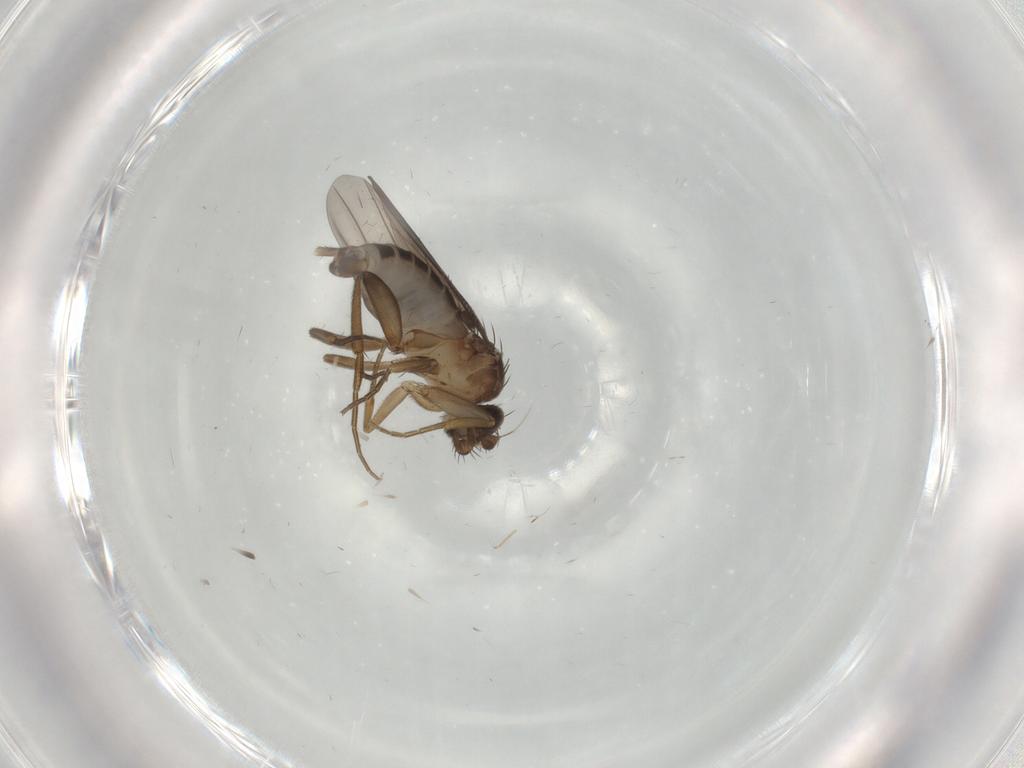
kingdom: Animalia
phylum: Arthropoda
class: Insecta
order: Diptera
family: Phoridae
